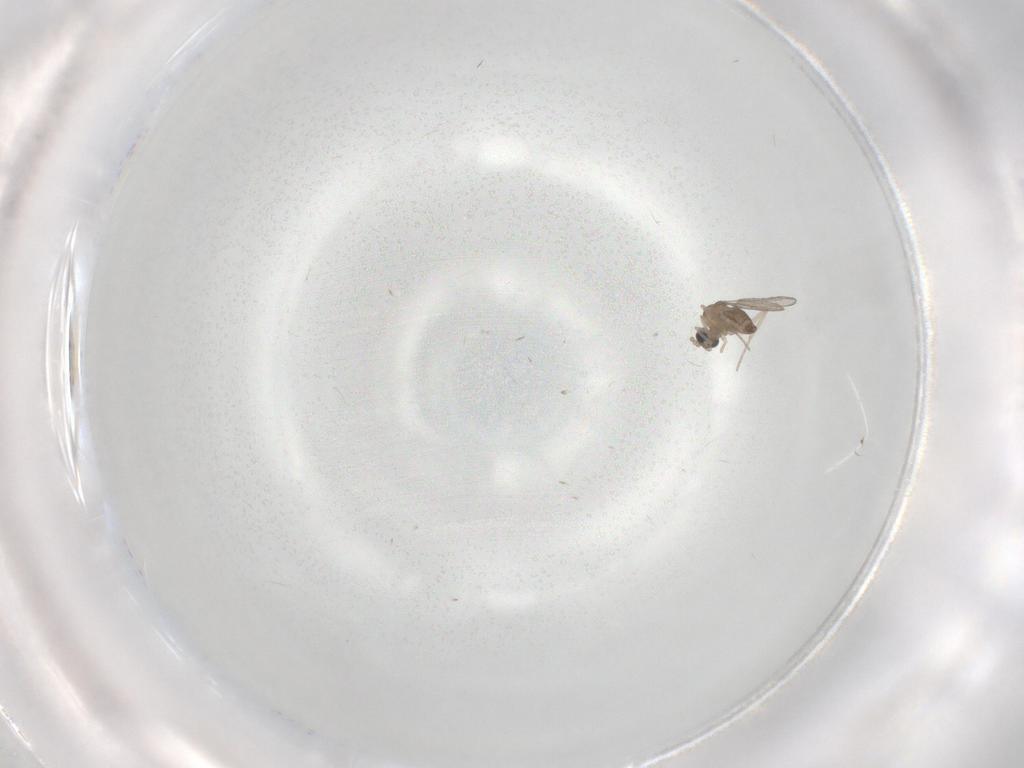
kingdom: Animalia
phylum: Arthropoda
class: Insecta
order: Diptera
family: Cecidomyiidae
